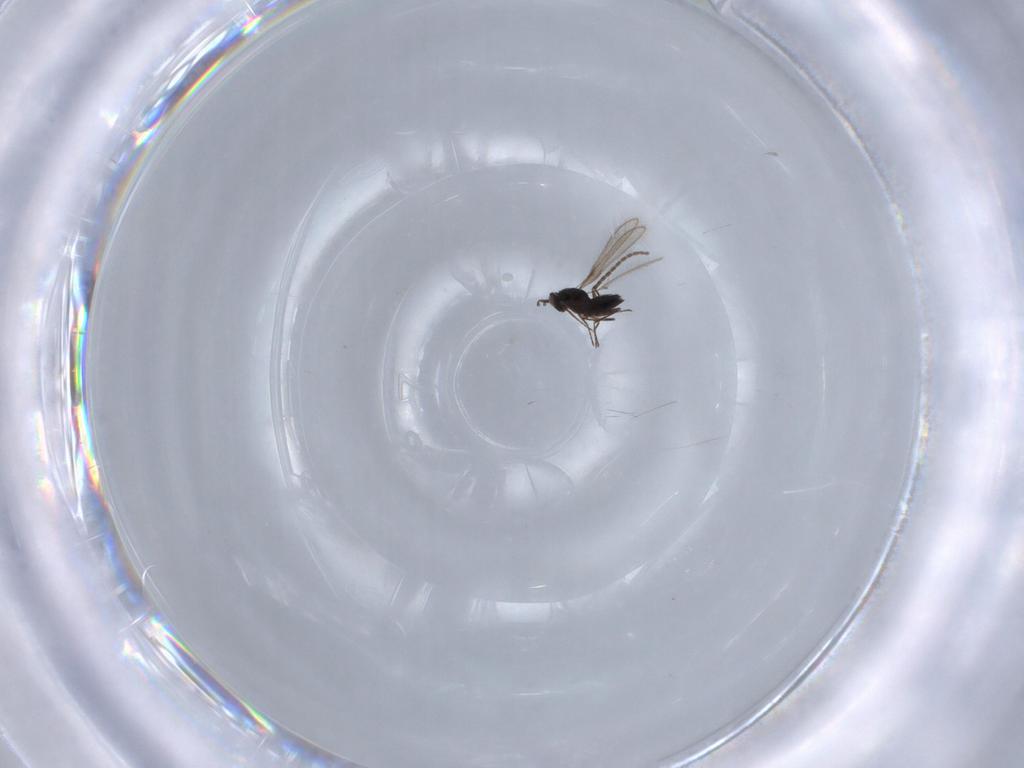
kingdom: Animalia
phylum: Arthropoda
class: Insecta
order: Hymenoptera
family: Ichneumonidae
